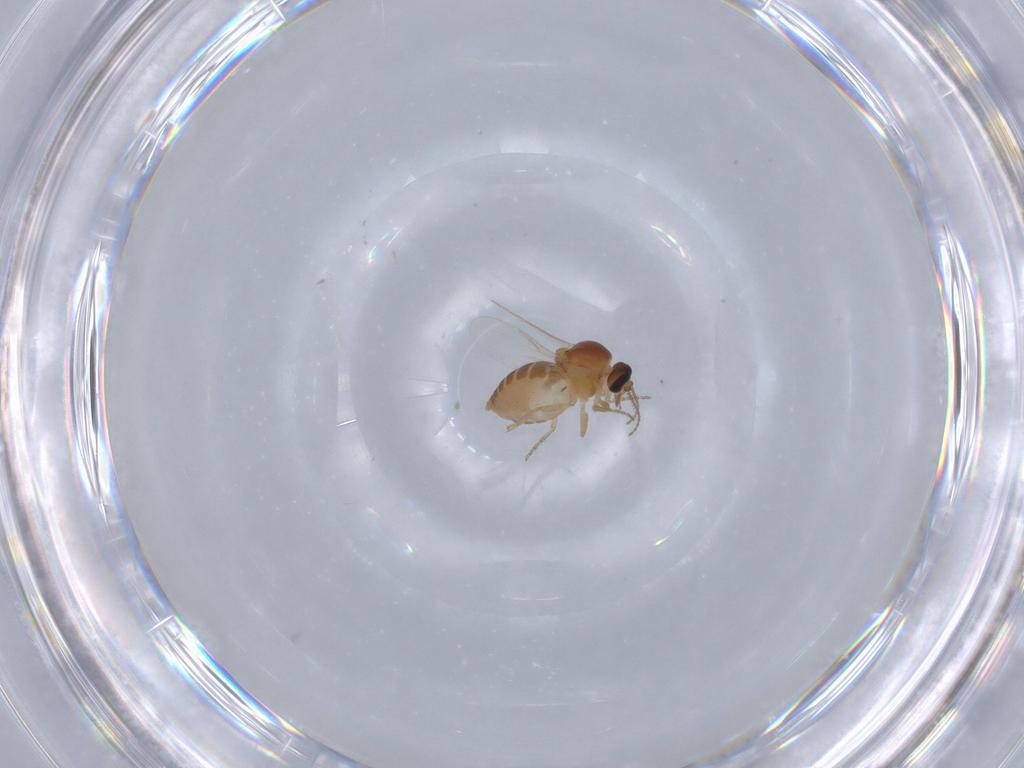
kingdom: Animalia
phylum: Arthropoda
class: Insecta
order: Diptera
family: Ceratopogonidae
